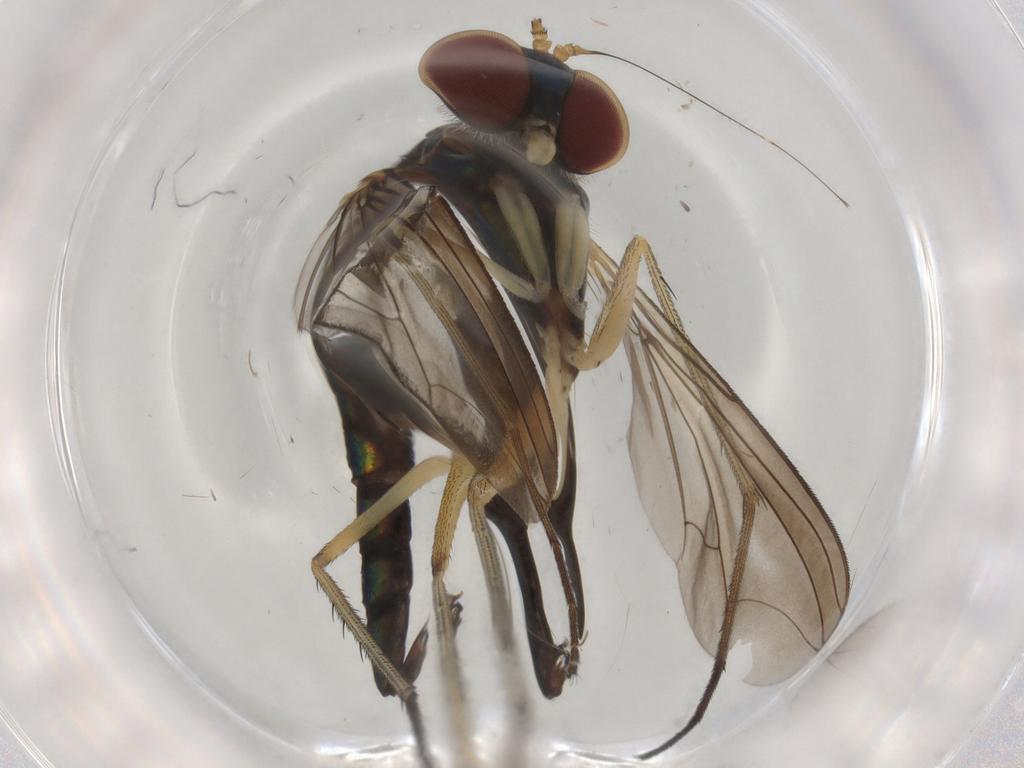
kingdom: Animalia
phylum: Arthropoda
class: Insecta
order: Diptera
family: Dolichopodidae
